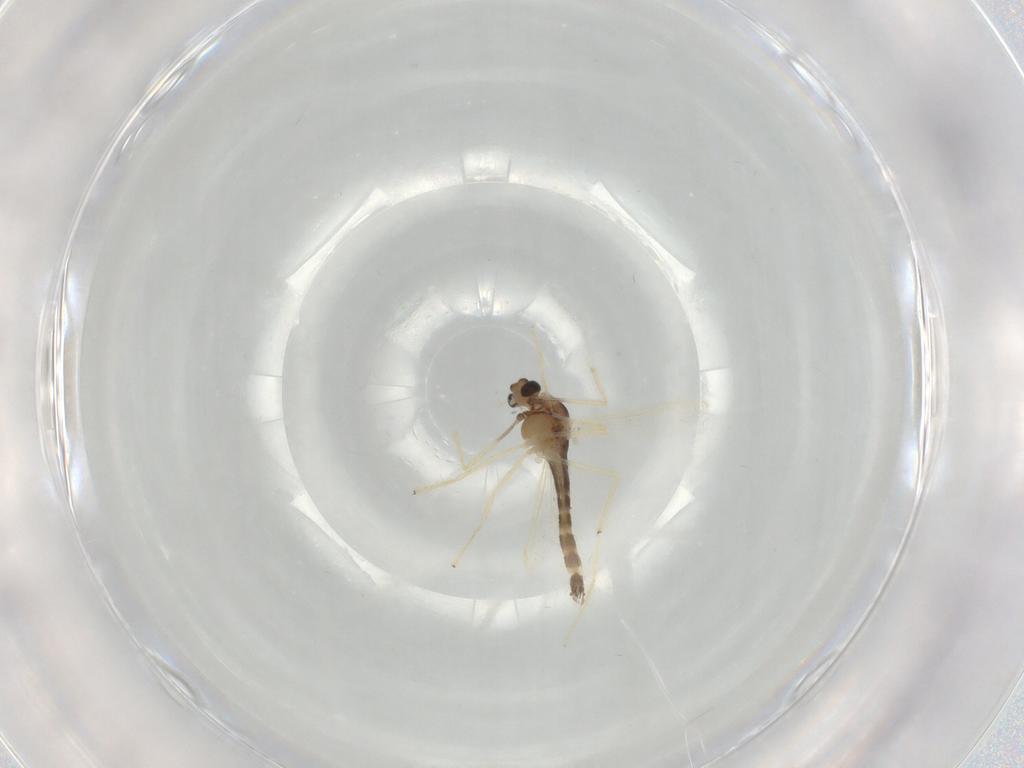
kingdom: Animalia
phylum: Arthropoda
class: Insecta
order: Diptera
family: Chironomidae
